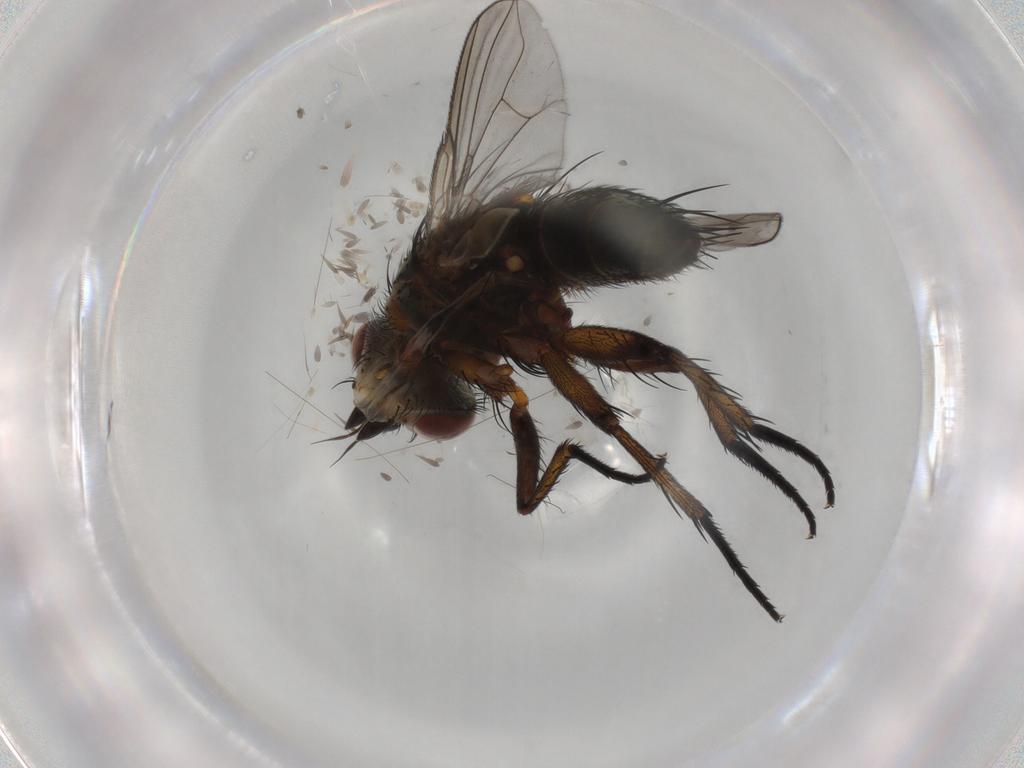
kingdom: Animalia
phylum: Arthropoda
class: Insecta
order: Diptera
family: Tachinidae
